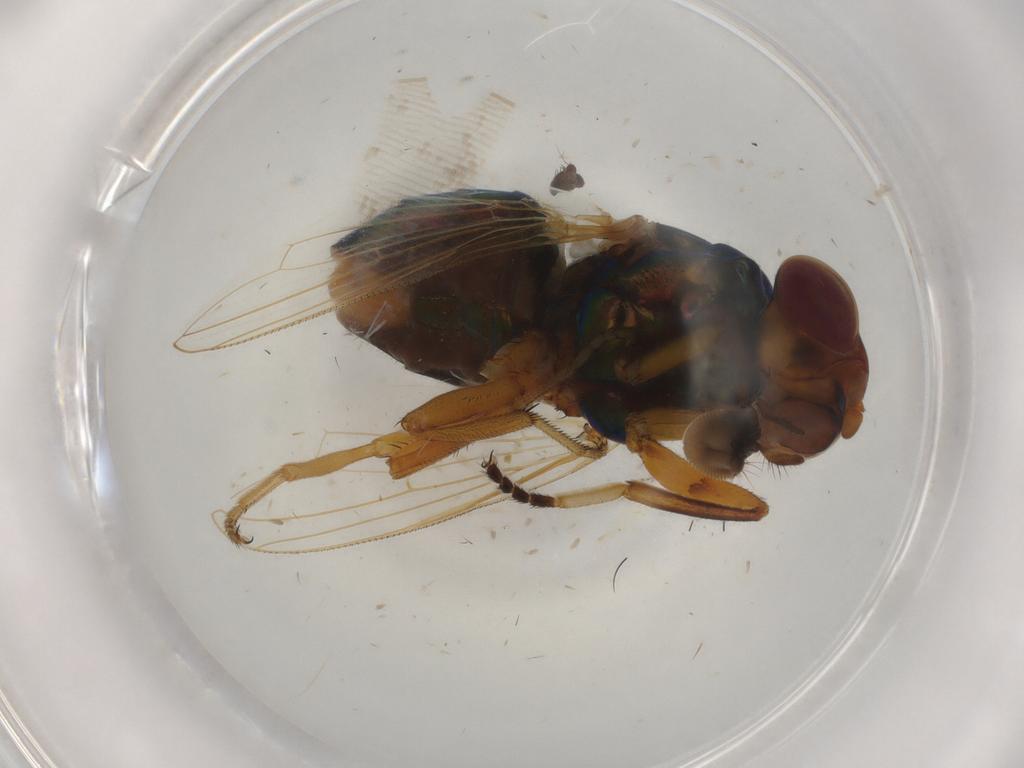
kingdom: Animalia
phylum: Arthropoda
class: Insecta
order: Diptera
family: Ulidiidae
